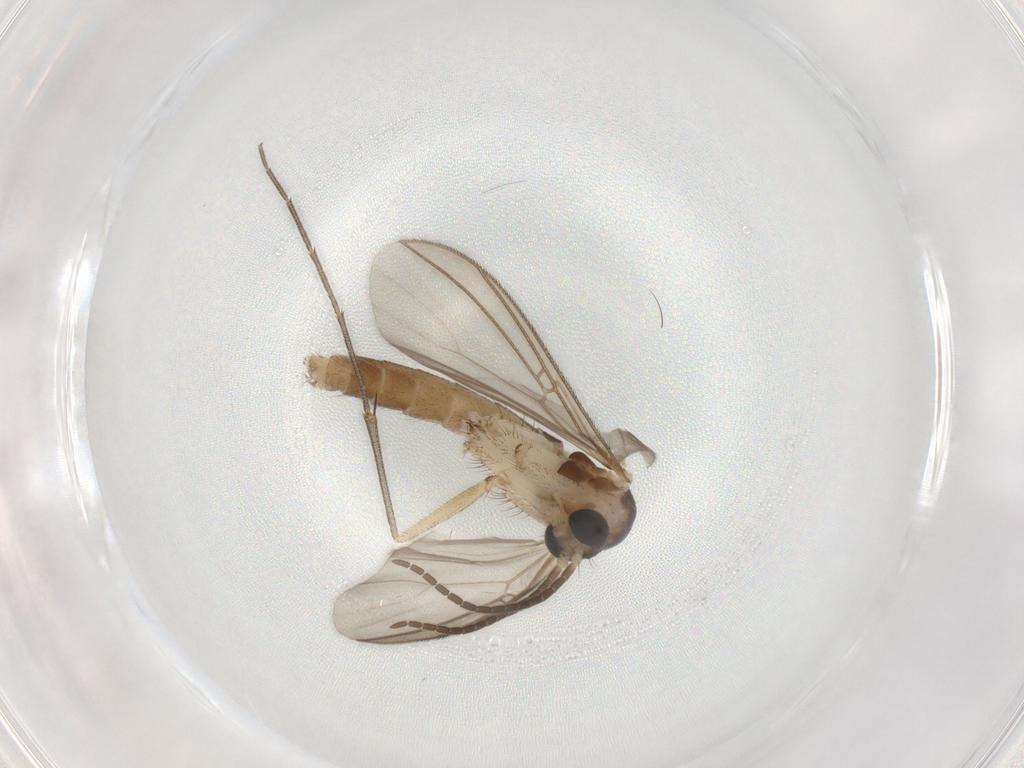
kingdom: Animalia
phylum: Arthropoda
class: Insecta
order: Diptera
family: Mycetophilidae
